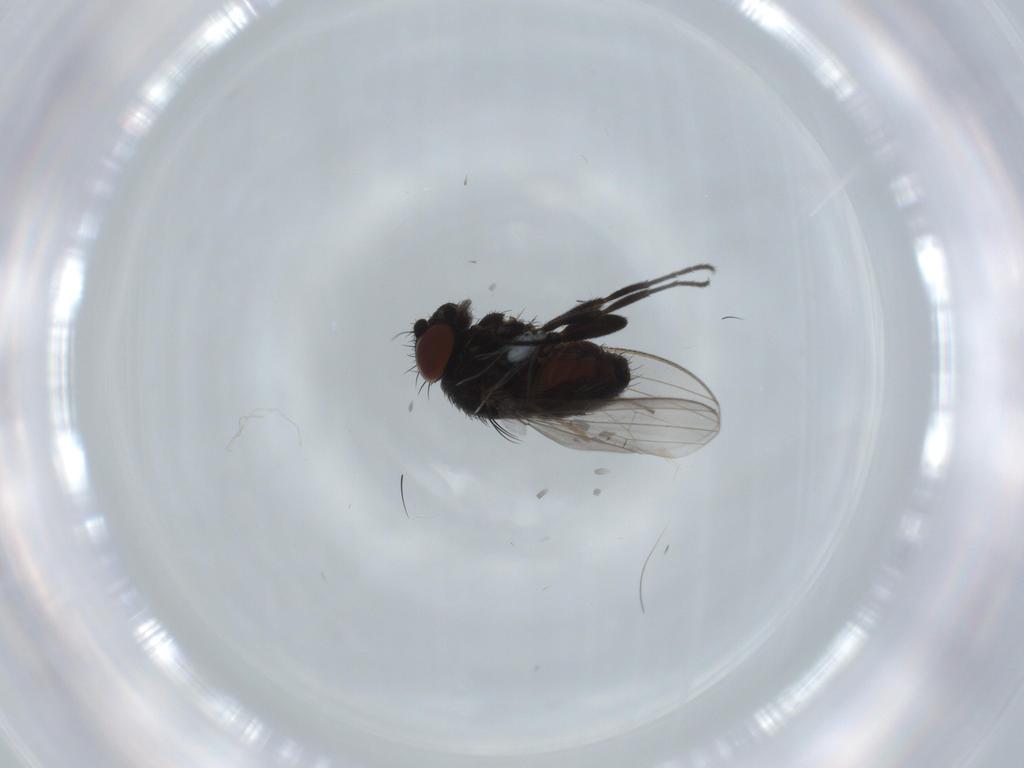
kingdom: Animalia
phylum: Arthropoda
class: Insecta
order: Diptera
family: Milichiidae
